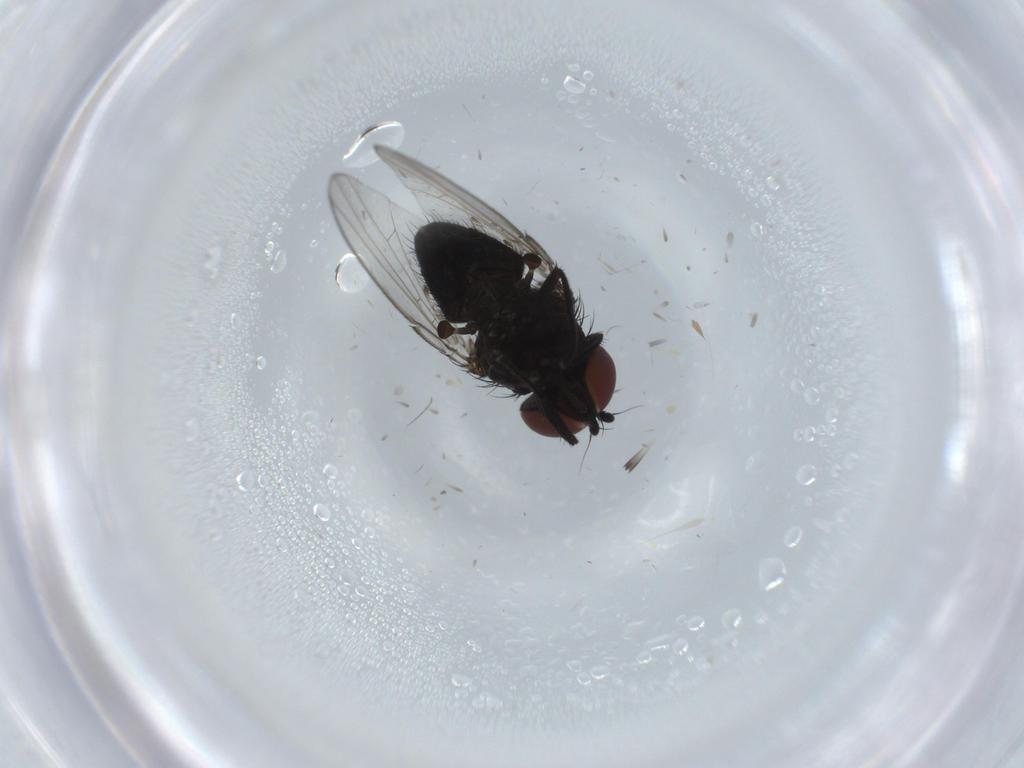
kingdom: Animalia
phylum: Arthropoda
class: Insecta
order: Diptera
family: Milichiidae
